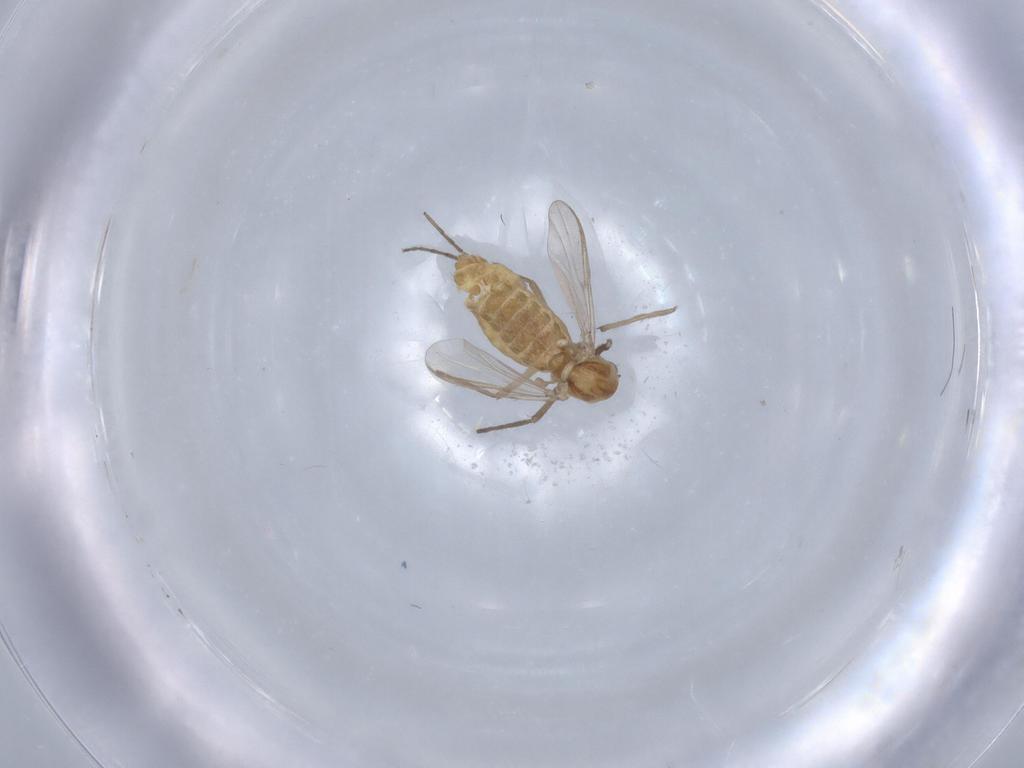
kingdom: Animalia
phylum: Arthropoda
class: Insecta
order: Diptera
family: Chironomidae
